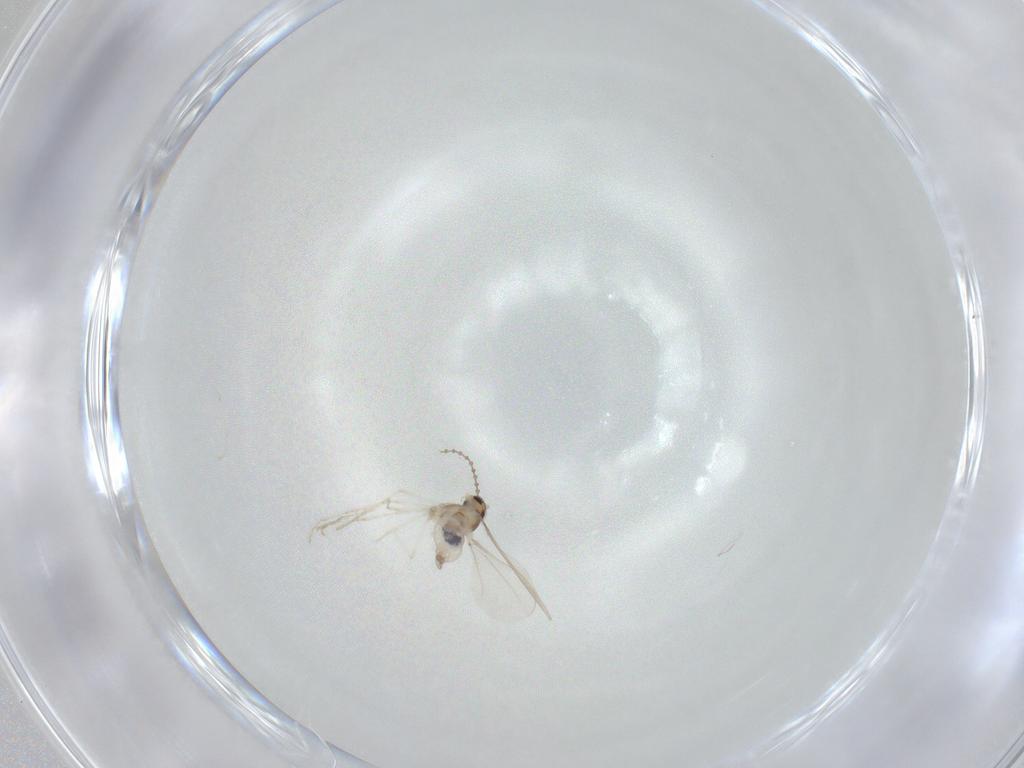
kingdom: Animalia
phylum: Arthropoda
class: Insecta
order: Diptera
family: Cecidomyiidae
